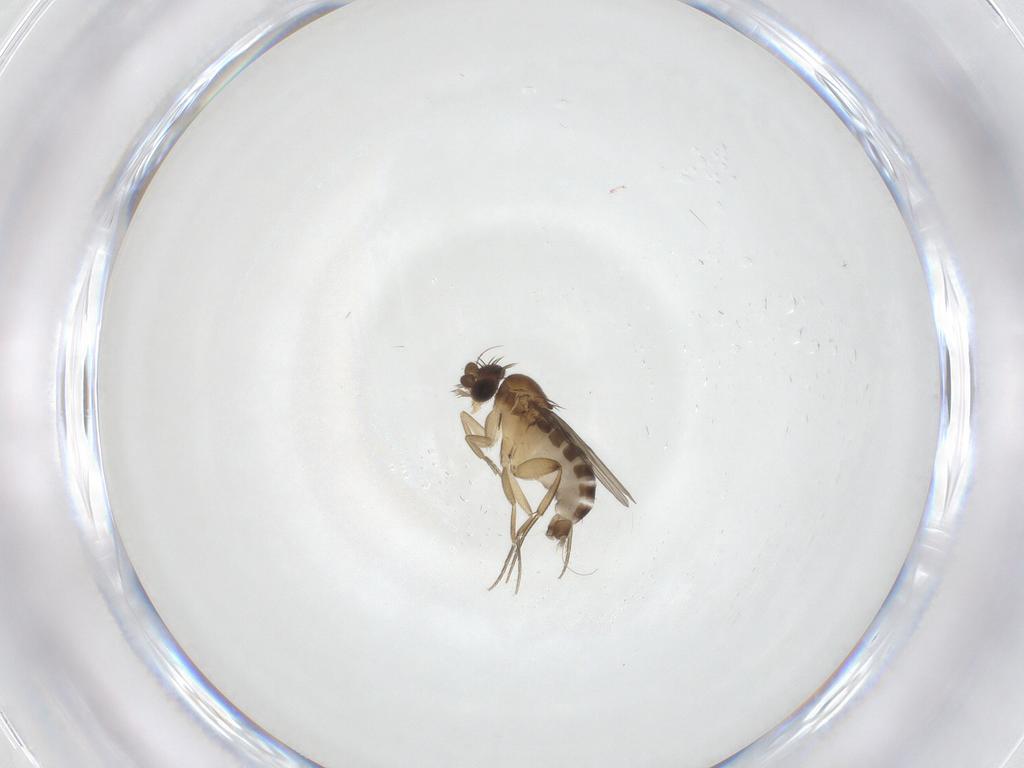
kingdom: Animalia
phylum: Arthropoda
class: Insecta
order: Diptera
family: Phoridae
